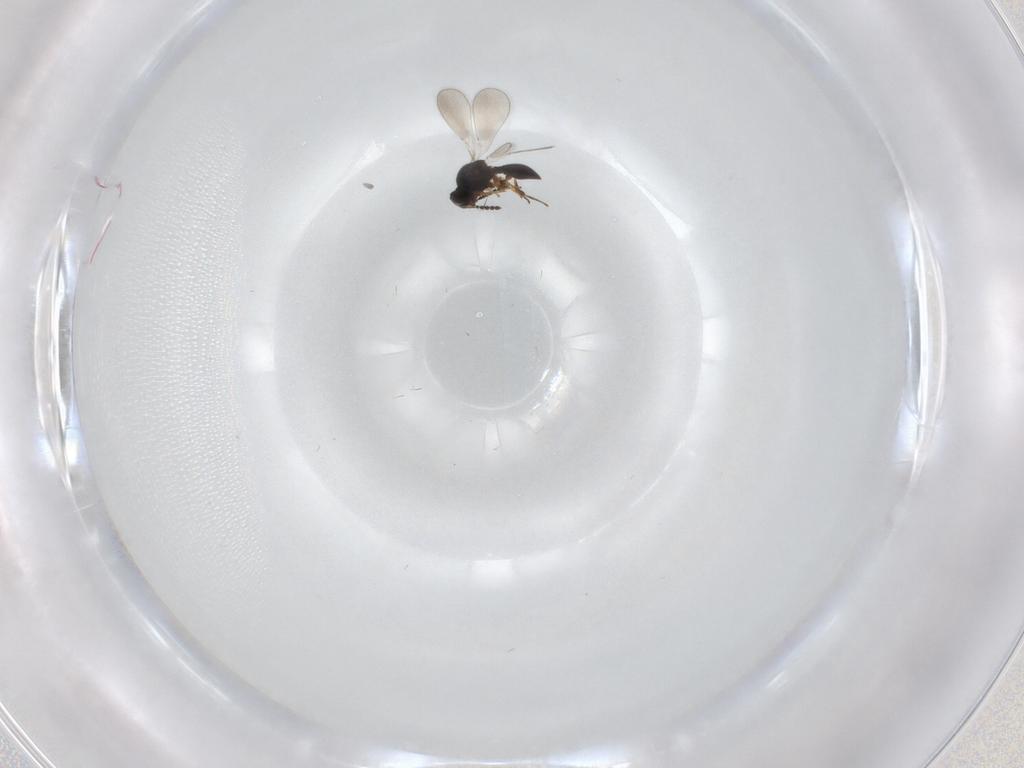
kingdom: Animalia
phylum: Arthropoda
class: Insecta
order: Hymenoptera
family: Platygastridae
